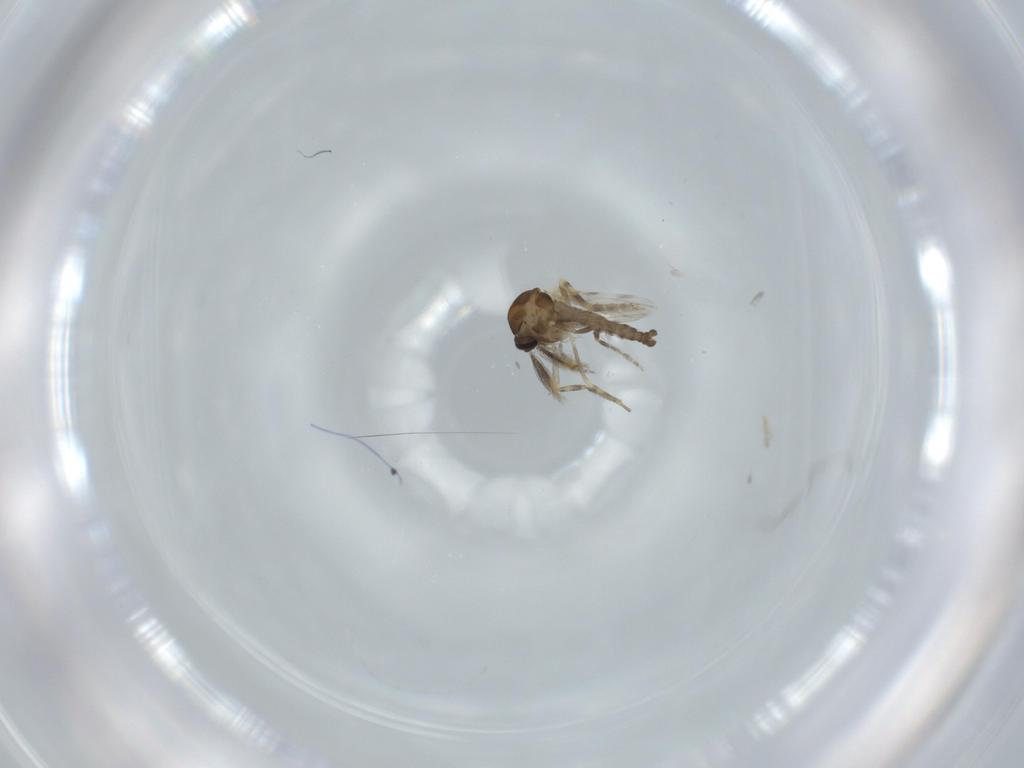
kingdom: Animalia
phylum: Arthropoda
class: Insecta
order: Diptera
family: Ceratopogonidae
